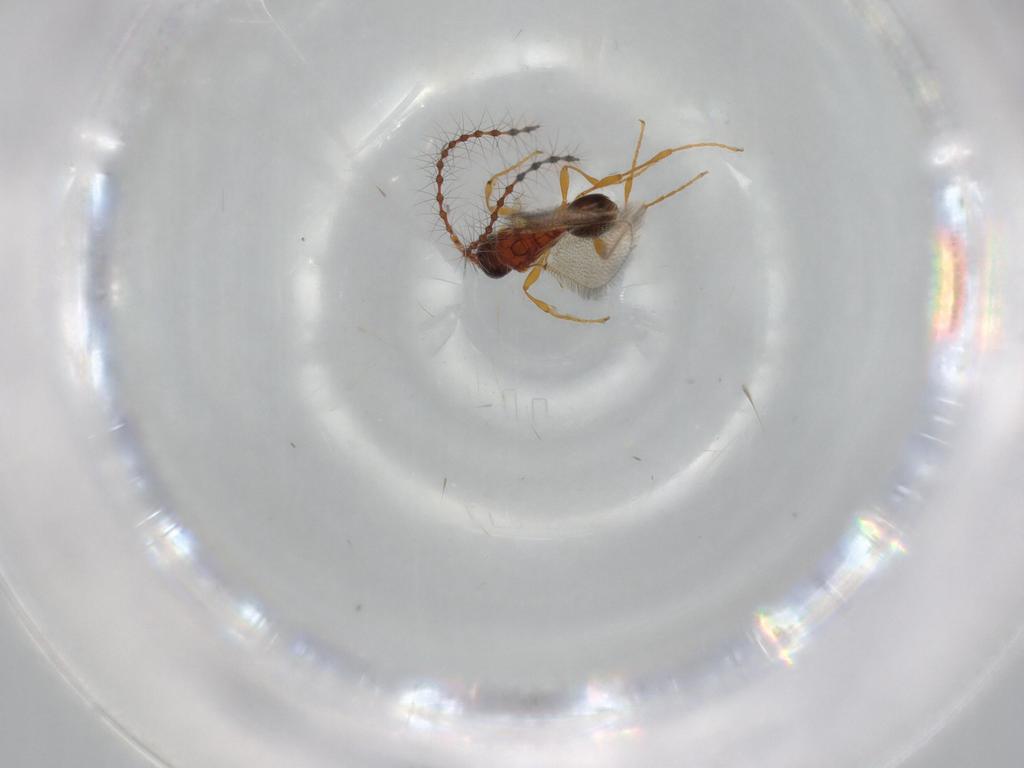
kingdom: Animalia
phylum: Arthropoda
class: Insecta
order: Hymenoptera
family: Diapriidae
